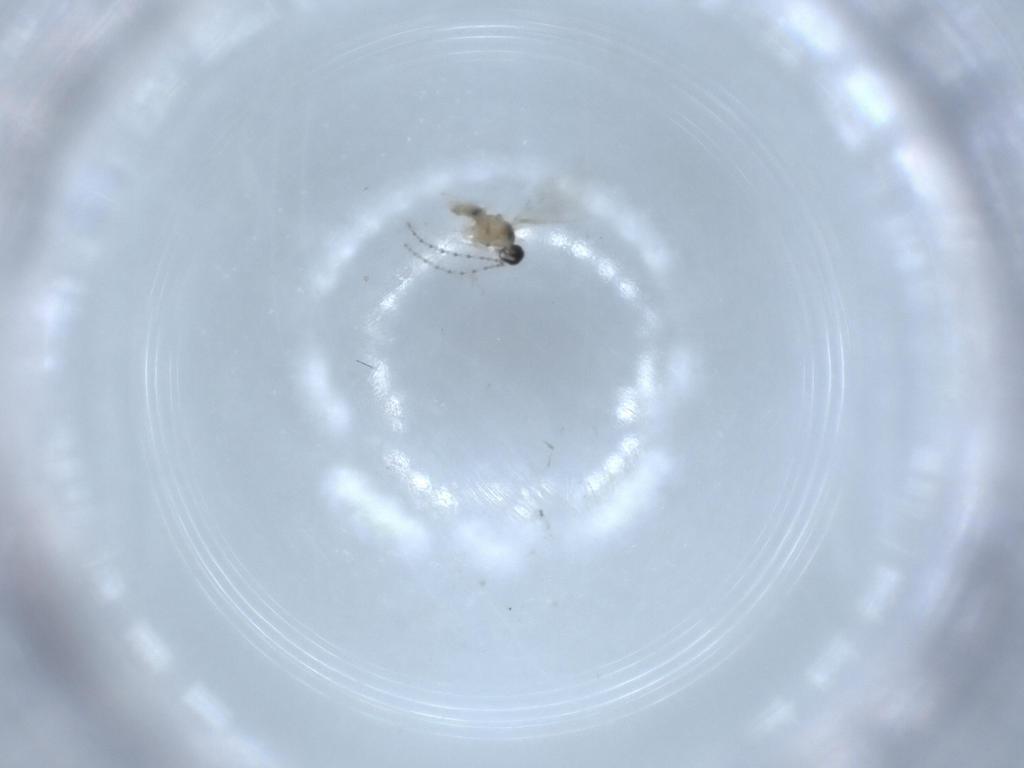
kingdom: Animalia
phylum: Arthropoda
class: Insecta
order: Diptera
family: Cecidomyiidae
